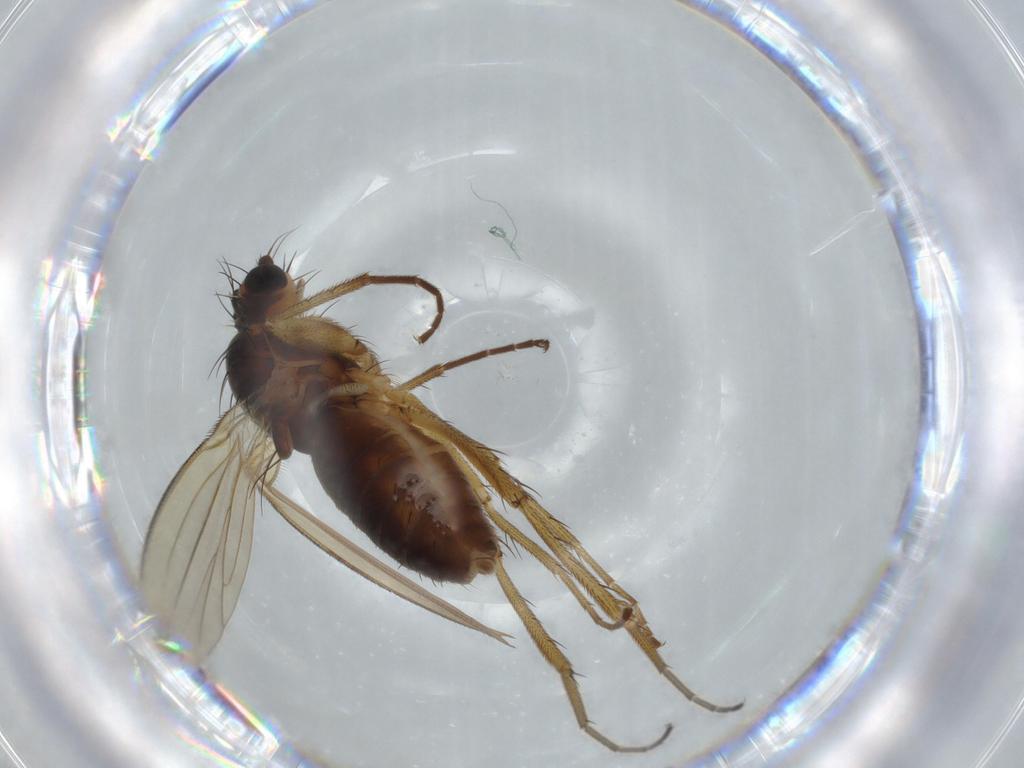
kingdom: Animalia
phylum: Arthropoda
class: Insecta
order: Diptera
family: Lonchopteridae
